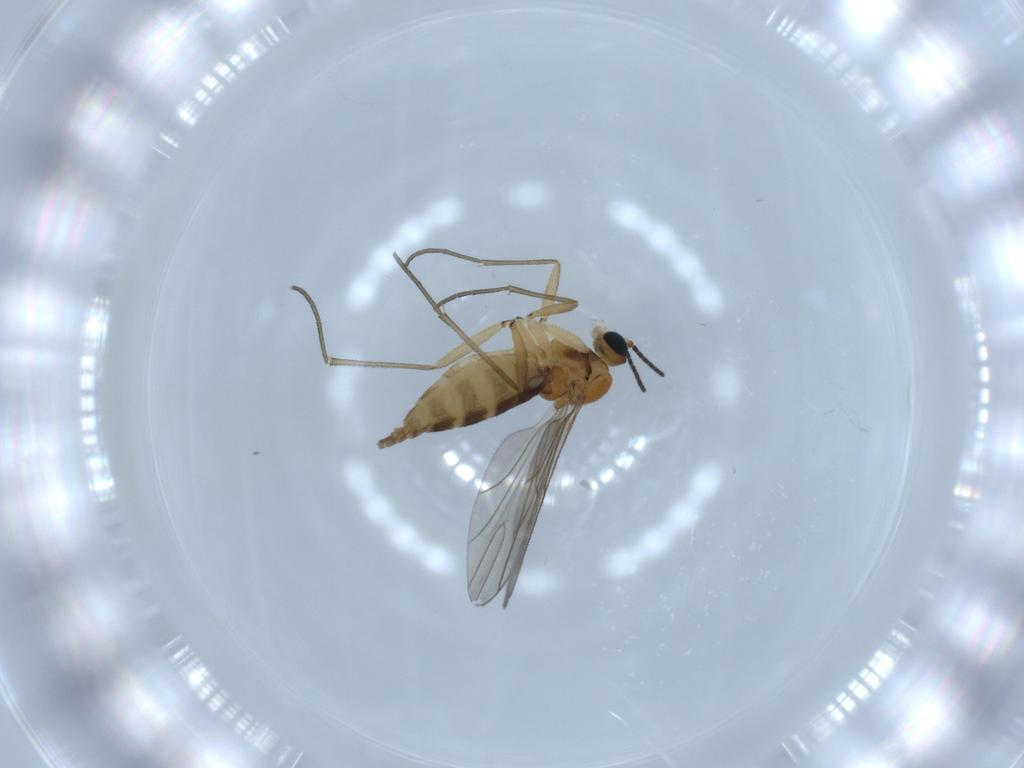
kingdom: Animalia
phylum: Arthropoda
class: Insecta
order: Diptera
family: Sciaridae
